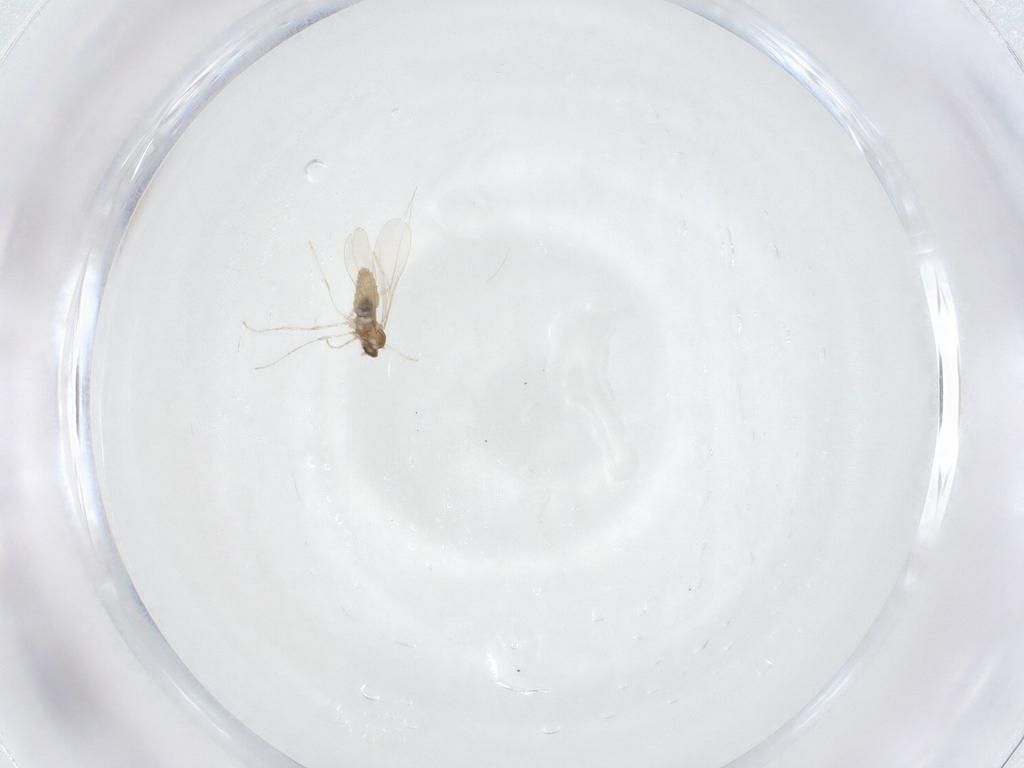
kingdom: Animalia
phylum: Arthropoda
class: Insecta
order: Diptera
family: Cecidomyiidae
